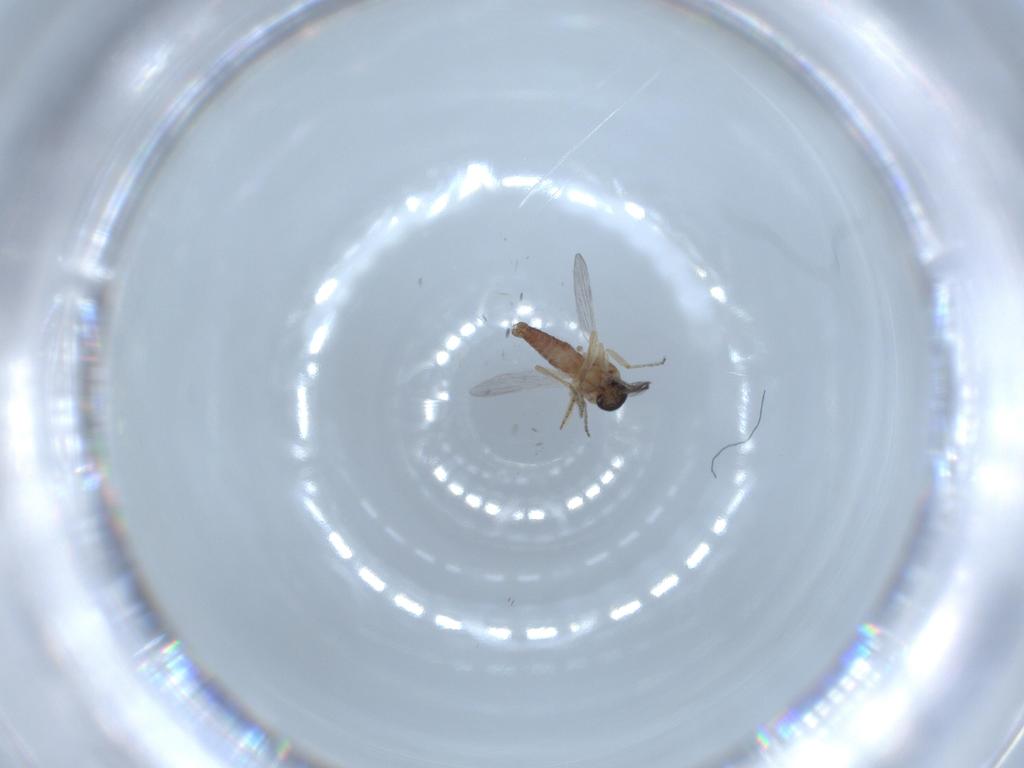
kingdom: Animalia
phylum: Arthropoda
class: Insecta
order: Diptera
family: Ceratopogonidae
